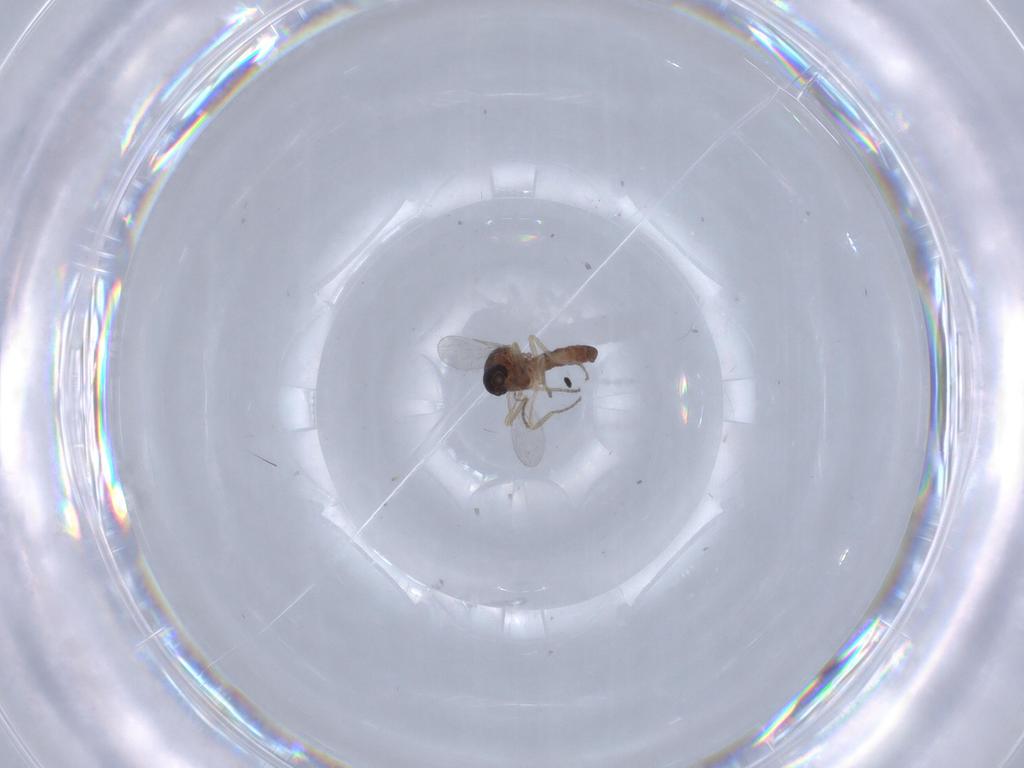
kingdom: Animalia
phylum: Arthropoda
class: Insecta
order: Diptera
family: Ceratopogonidae
